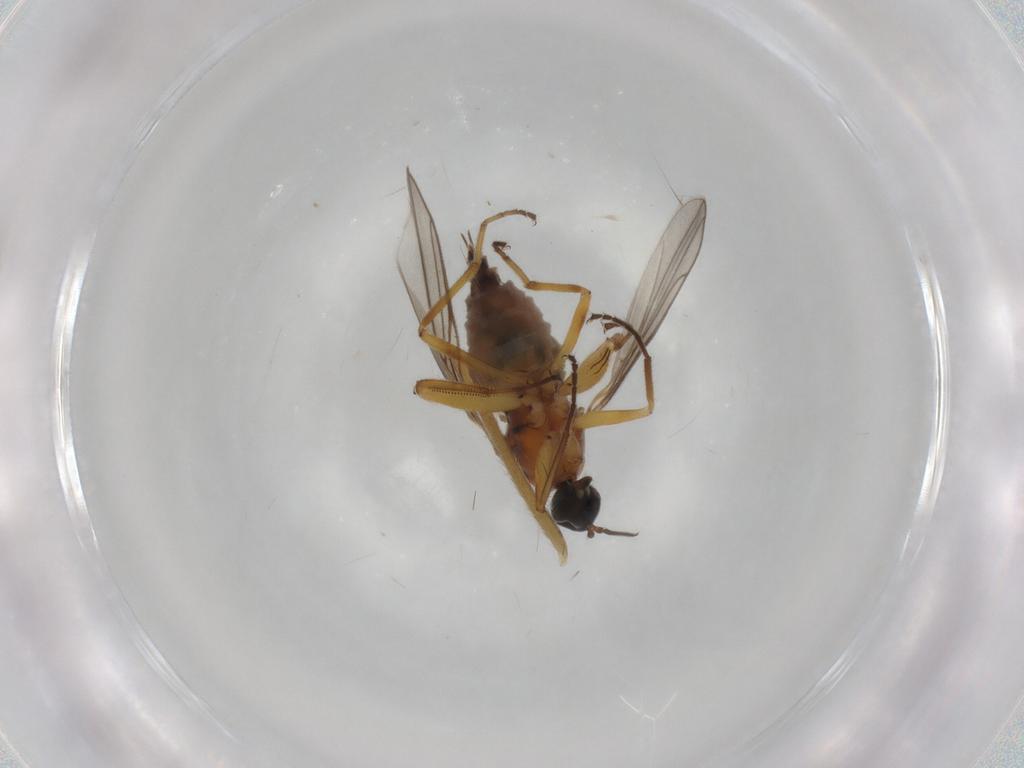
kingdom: Animalia
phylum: Arthropoda
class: Insecta
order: Diptera
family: Hybotidae
